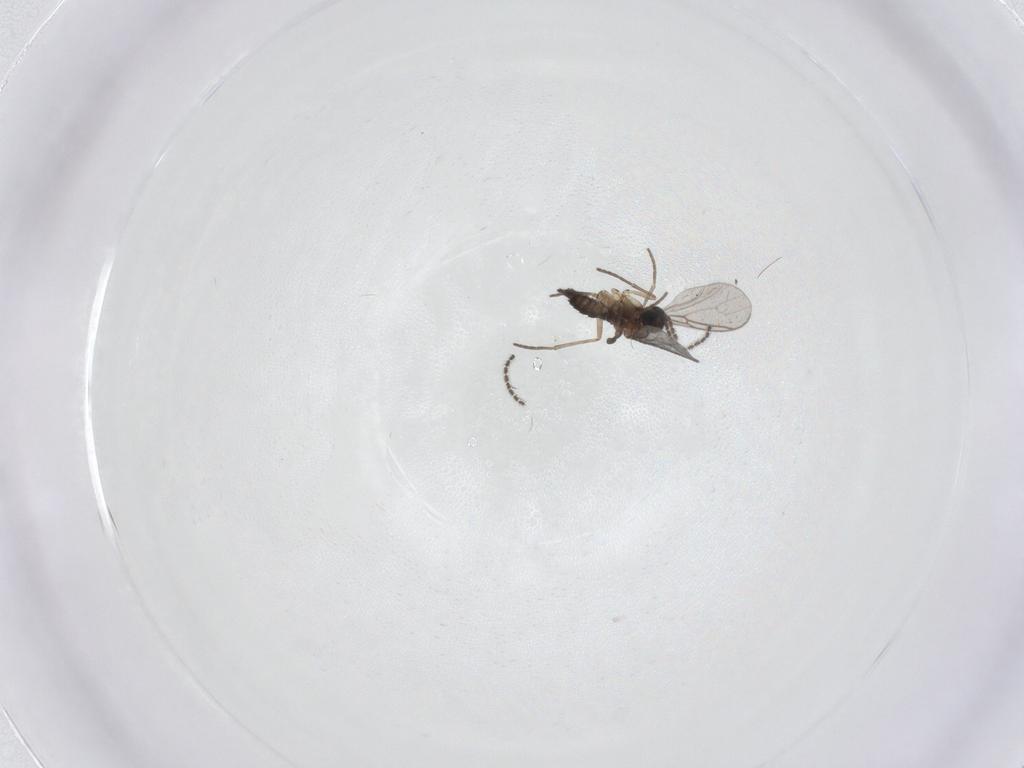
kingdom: Animalia
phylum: Arthropoda
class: Insecta
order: Diptera
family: Sciaridae
